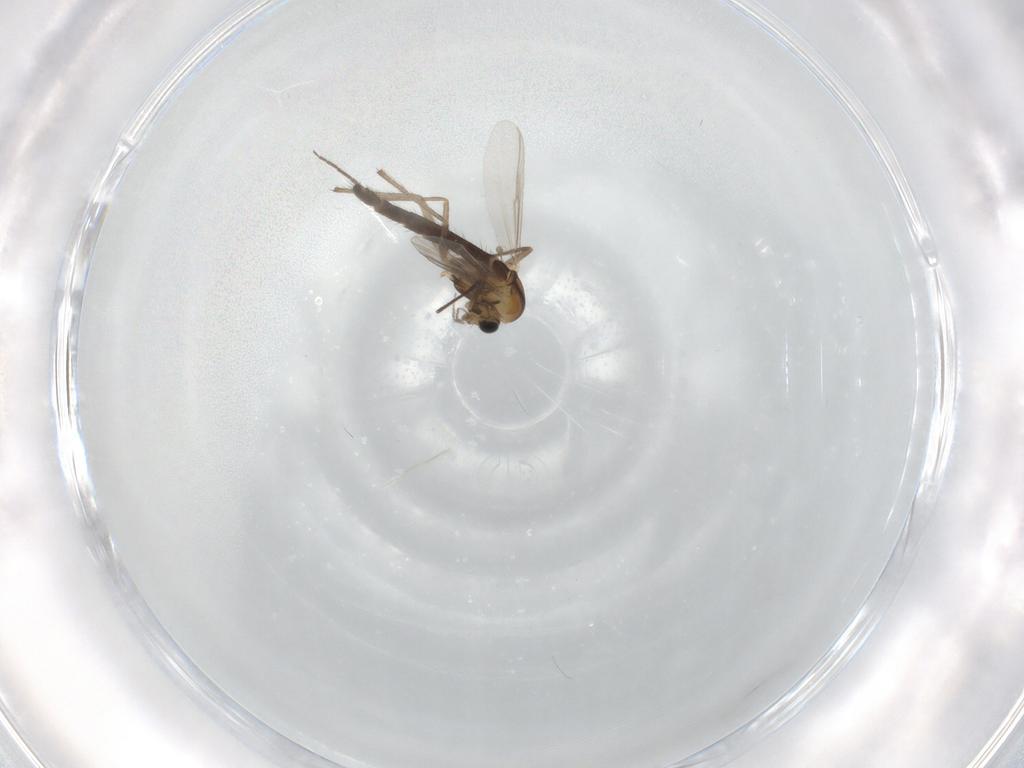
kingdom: Animalia
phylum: Arthropoda
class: Insecta
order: Diptera
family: Chironomidae
